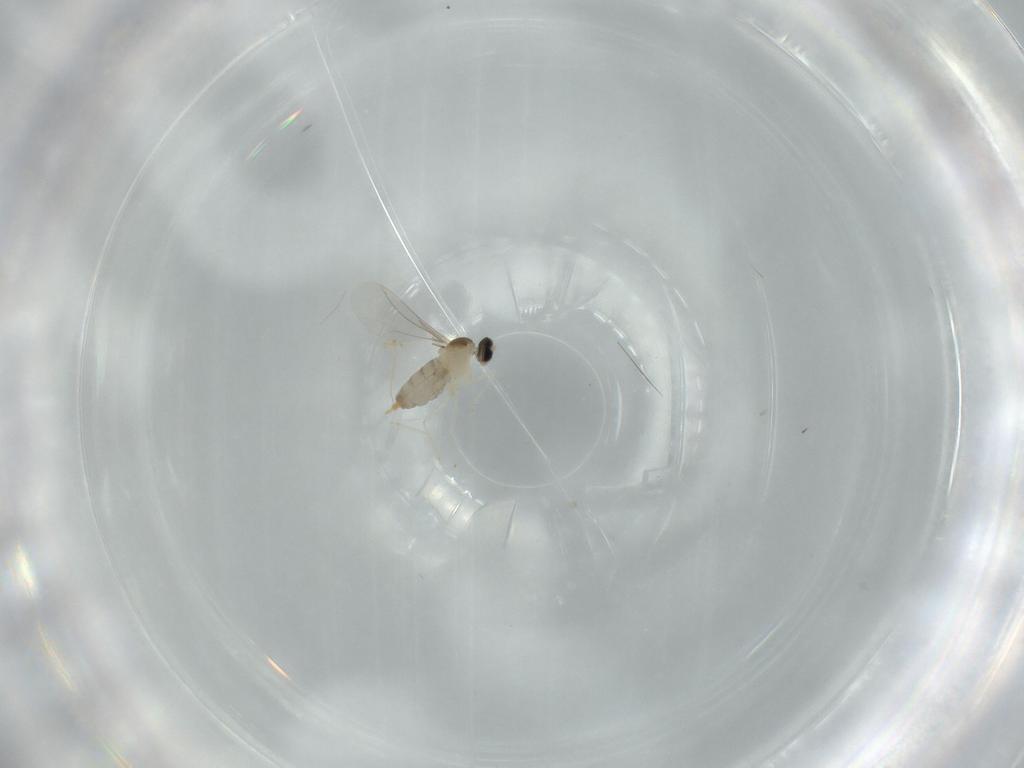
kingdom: Animalia
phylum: Arthropoda
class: Insecta
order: Diptera
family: Cecidomyiidae
